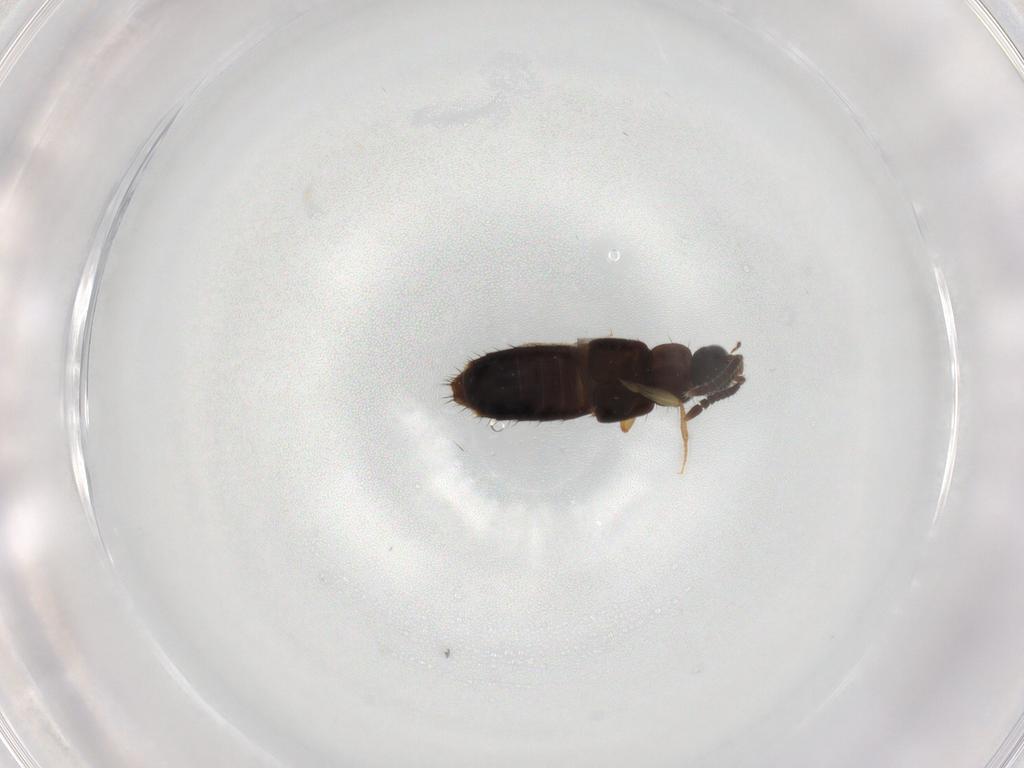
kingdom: Animalia
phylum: Arthropoda
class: Insecta
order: Coleoptera
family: Staphylinidae
